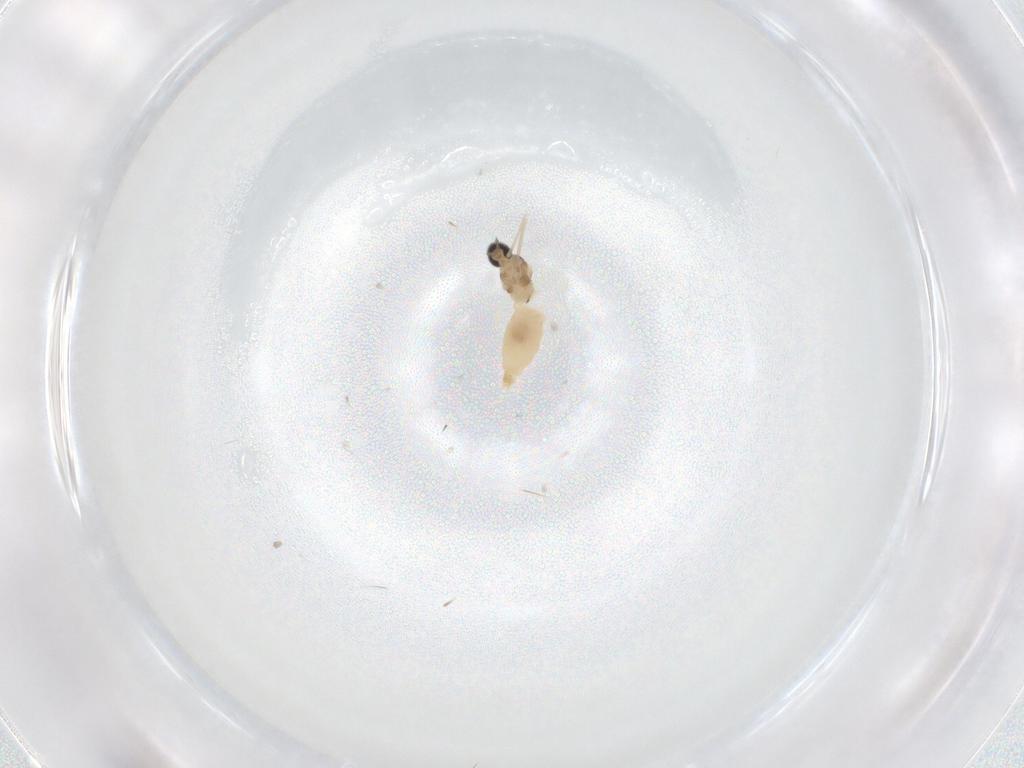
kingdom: Animalia
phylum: Arthropoda
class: Insecta
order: Diptera
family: Cecidomyiidae
